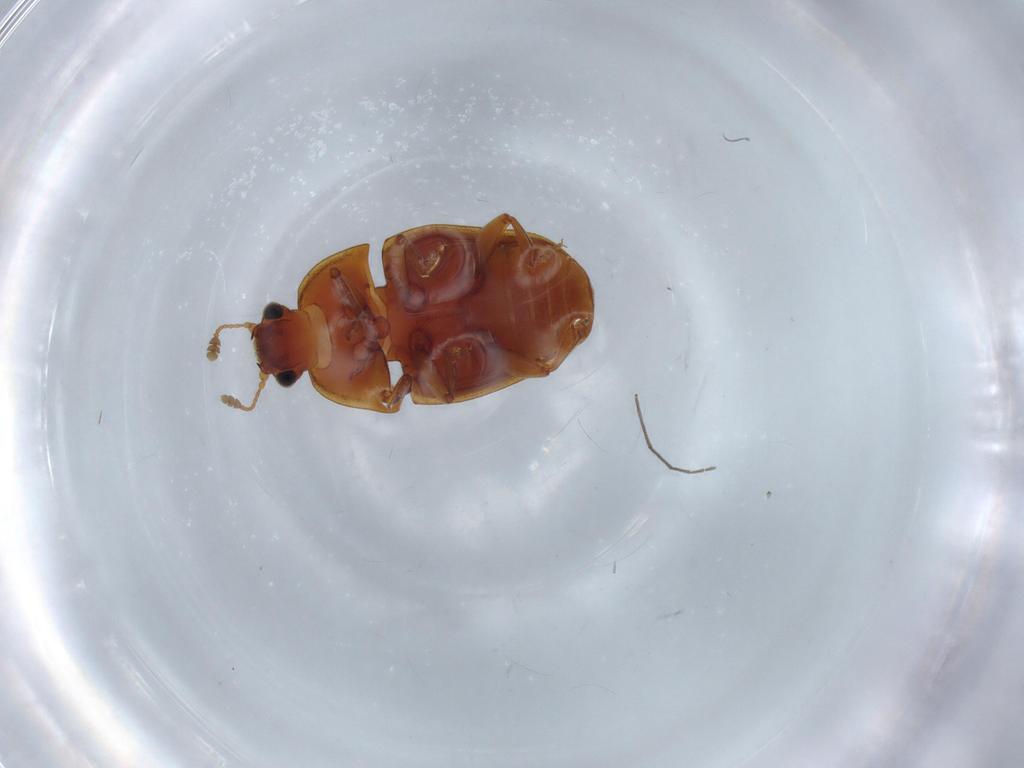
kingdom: Animalia
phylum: Arthropoda
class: Insecta
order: Coleoptera
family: Nitidulidae
